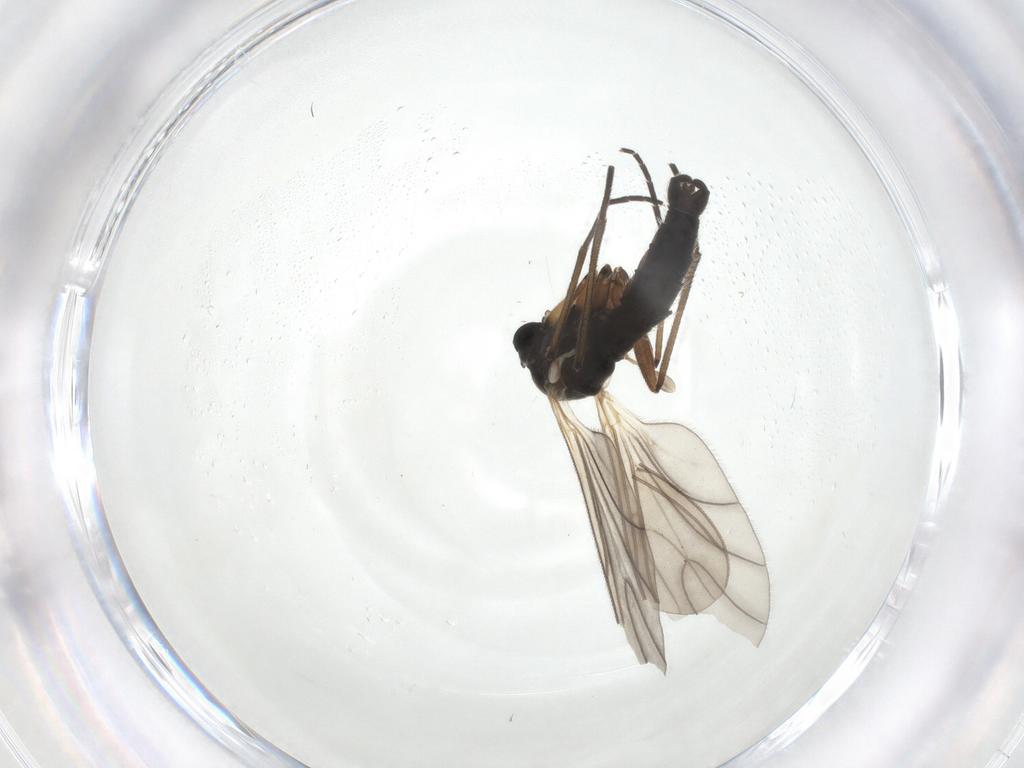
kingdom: Animalia
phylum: Arthropoda
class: Insecta
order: Diptera
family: Sciaridae
